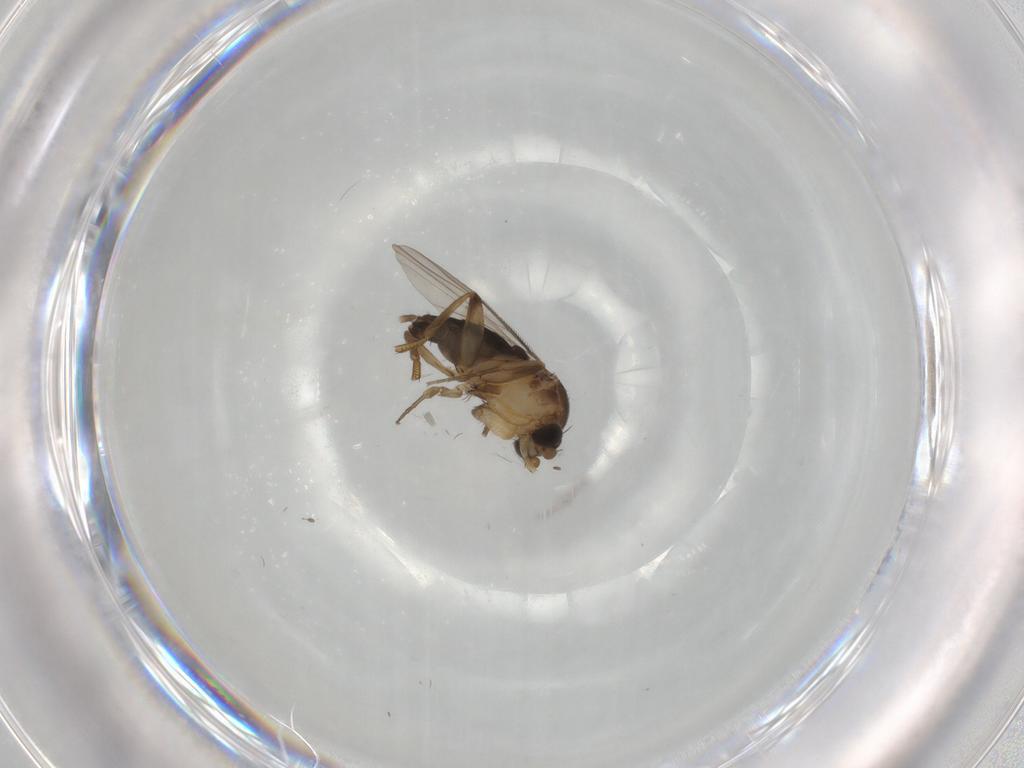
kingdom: Animalia
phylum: Arthropoda
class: Insecta
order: Diptera
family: Phoridae
